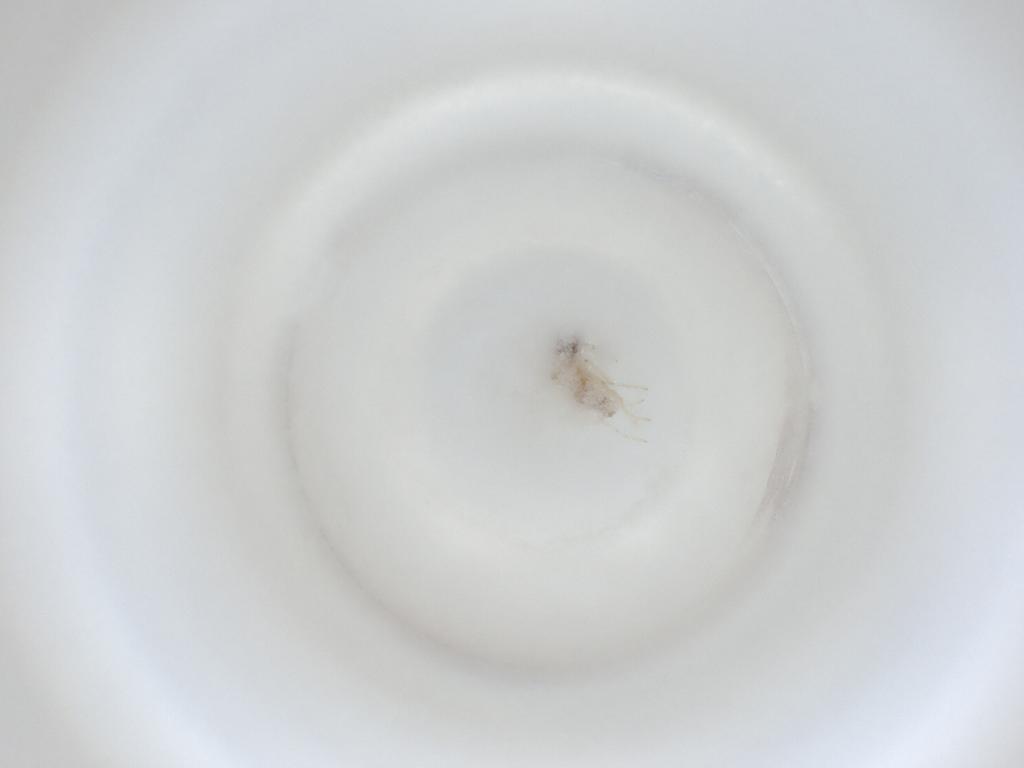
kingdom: Animalia
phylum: Arthropoda
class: Insecta
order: Diptera
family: Cecidomyiidae
